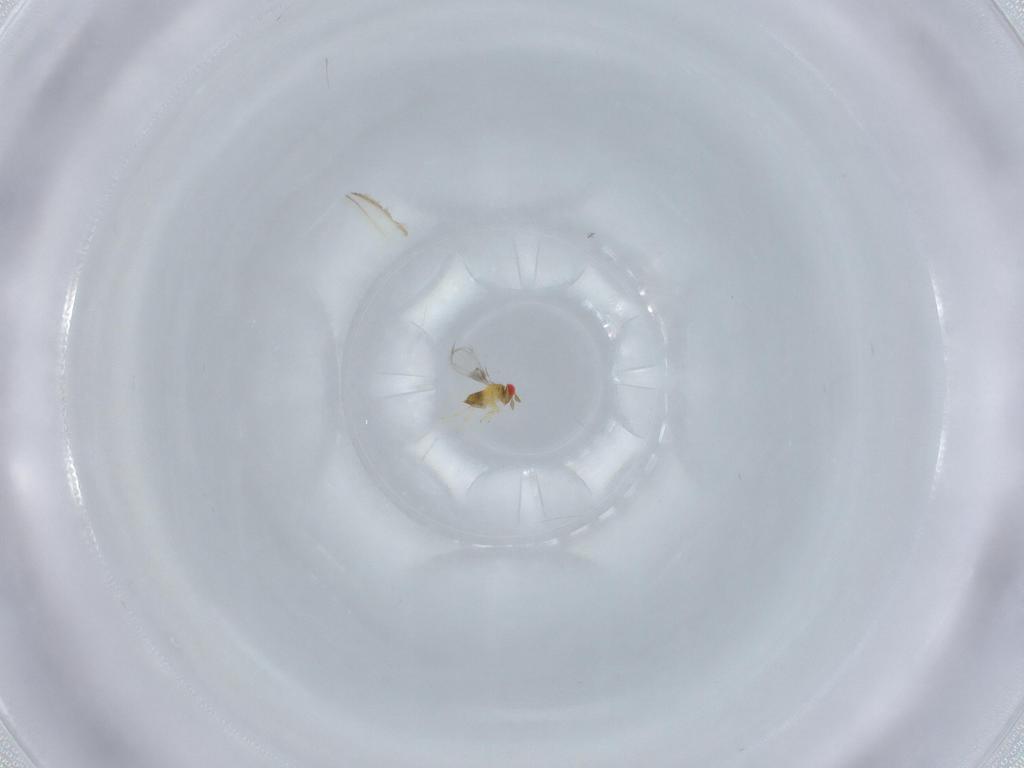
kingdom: Animalia
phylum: Arthropoda
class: Insecta
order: Hymenoptera
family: Trichogrammatidae
